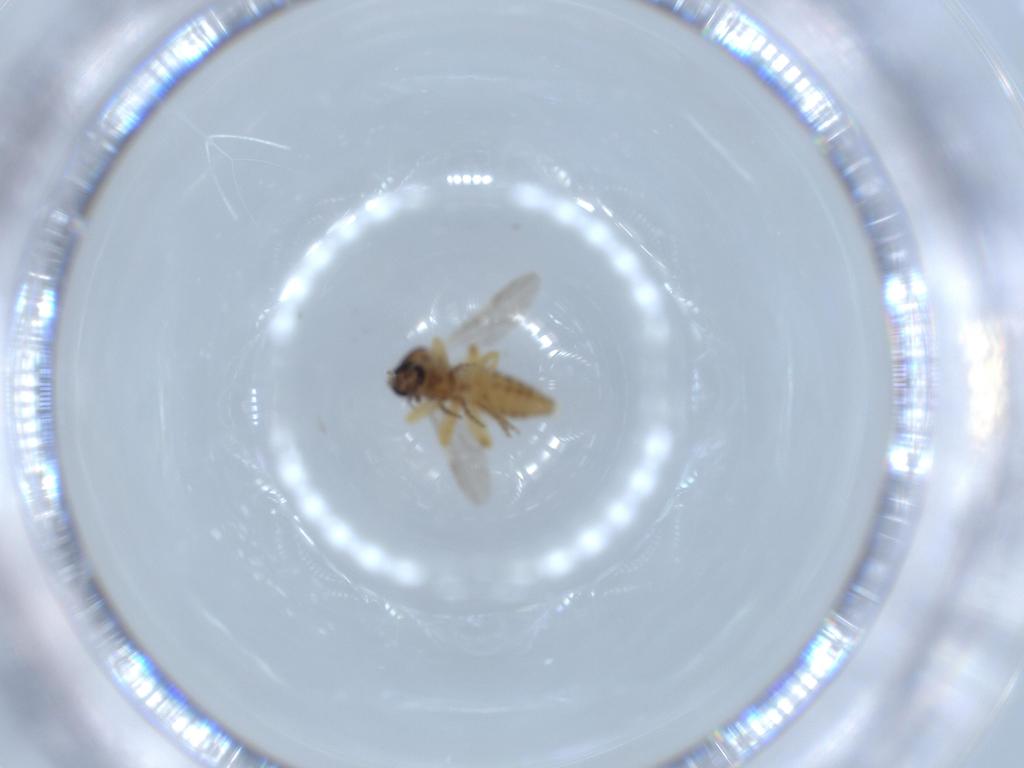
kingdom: Animalia
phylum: Arthropoda
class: Insecta
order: Diptera
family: Ceratopogonidae
